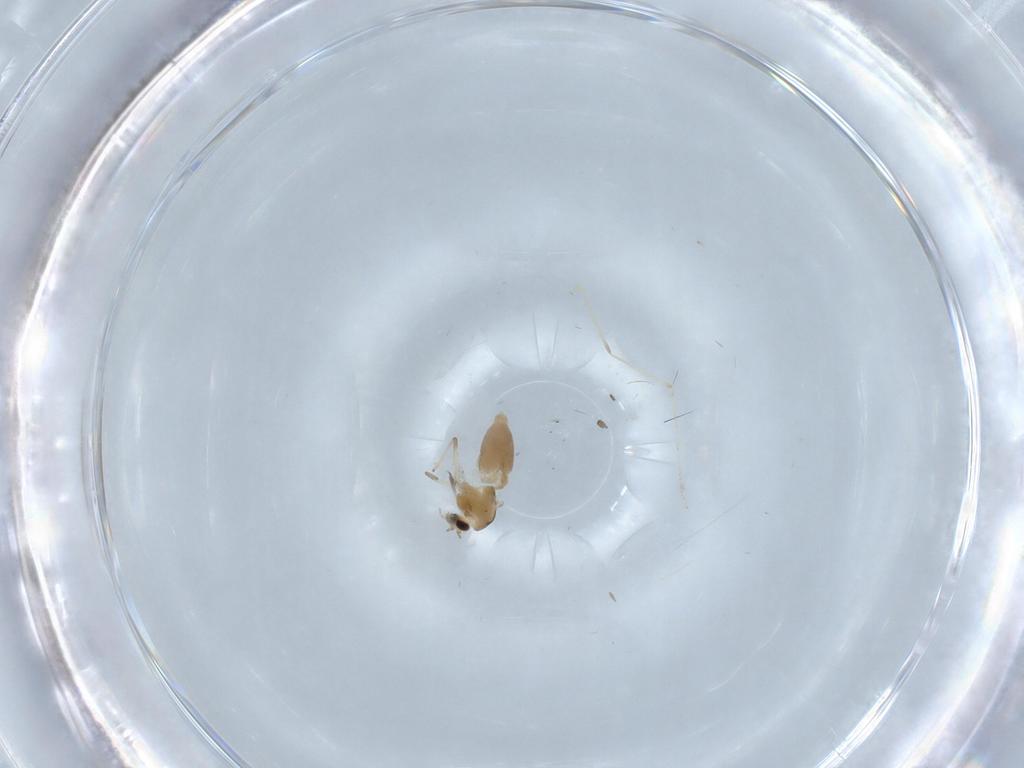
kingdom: Animalia
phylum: Arthropoda
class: Insecta
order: Diptera
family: Chironomidae
